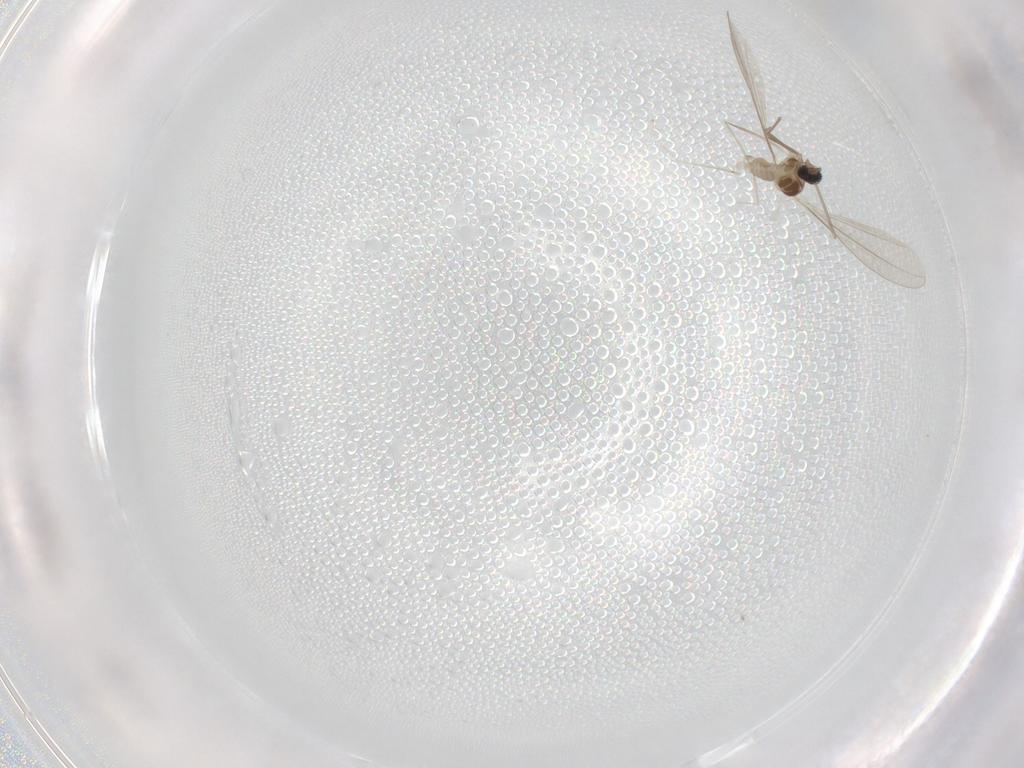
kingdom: Animalia
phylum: Arthropoda
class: Insecta
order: Diptera
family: Cecidomyiidae
